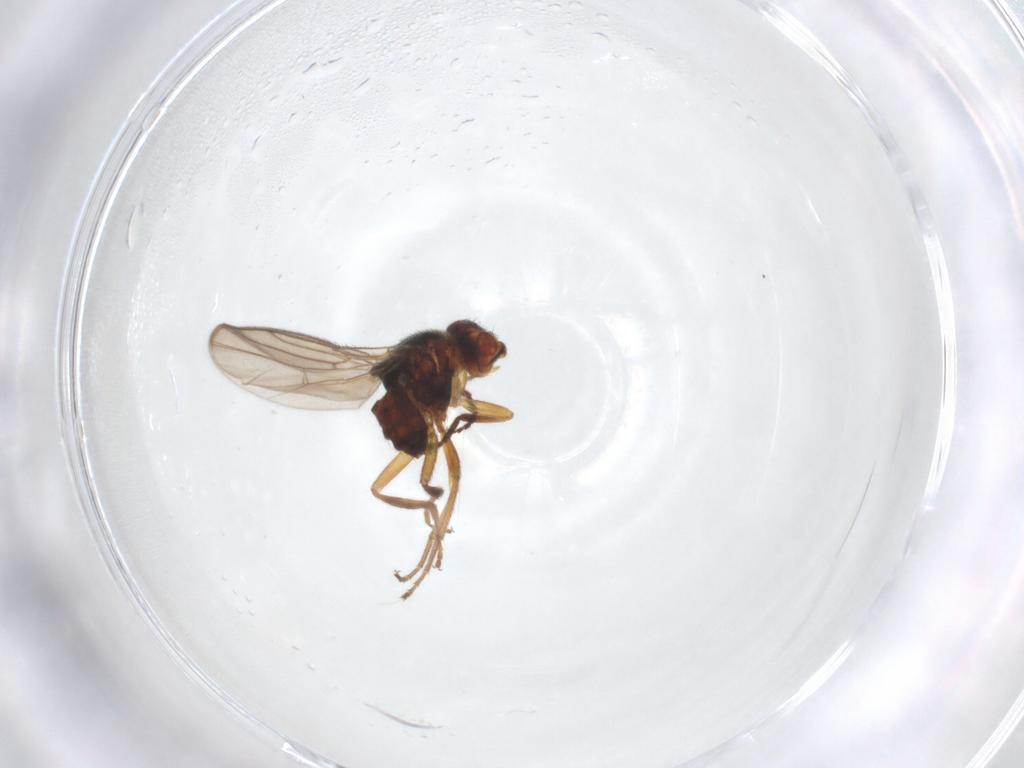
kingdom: Animalia
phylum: Arthropoda
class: Insecta
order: Diptera
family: Chloropidae
